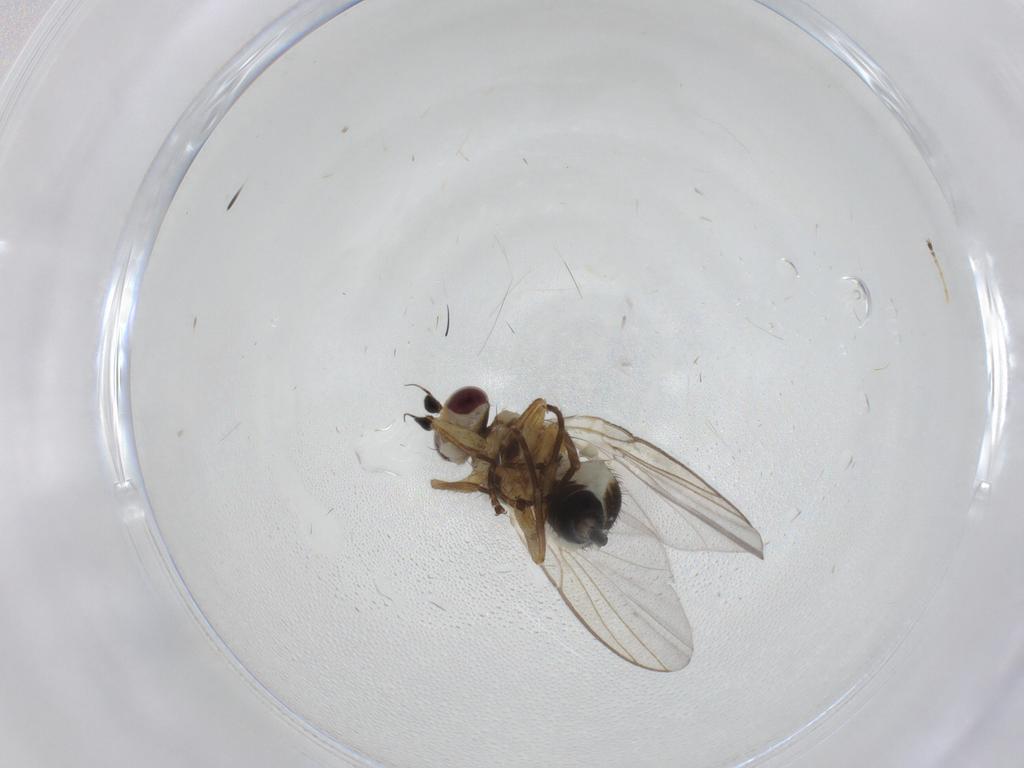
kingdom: Animalia
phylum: Arthropoda
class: Insecta
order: Diptera
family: Agromyzidae
